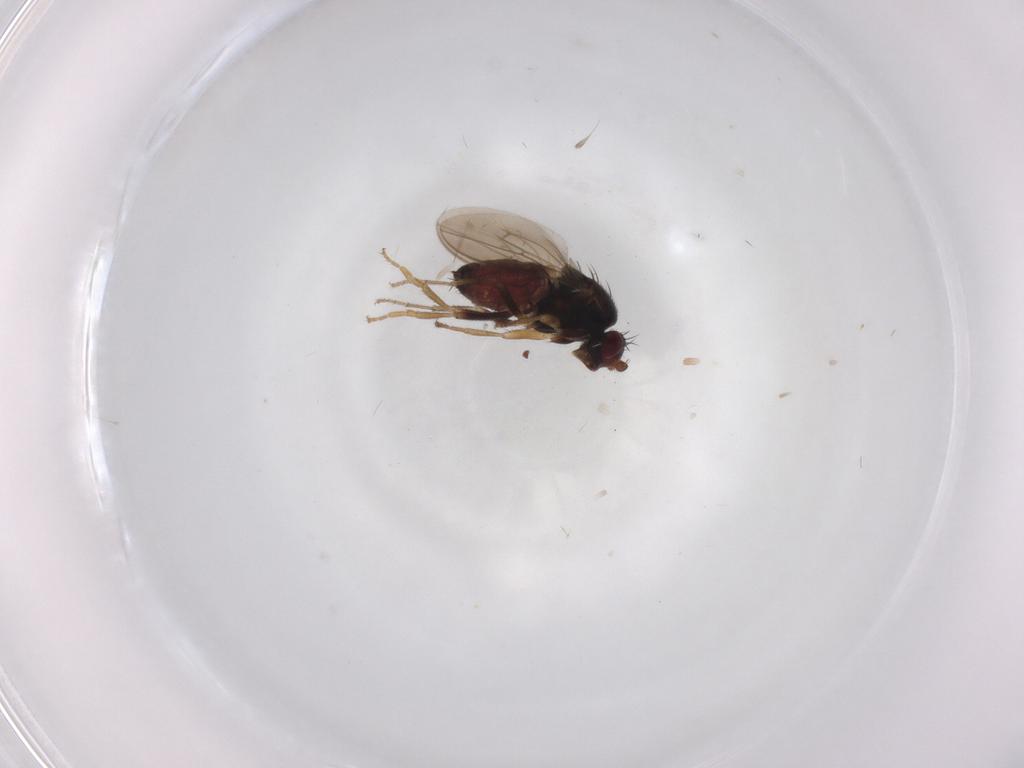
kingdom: Animalia
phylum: Arthropoda
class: Insecta
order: Diptera
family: Sphaeroceridae
